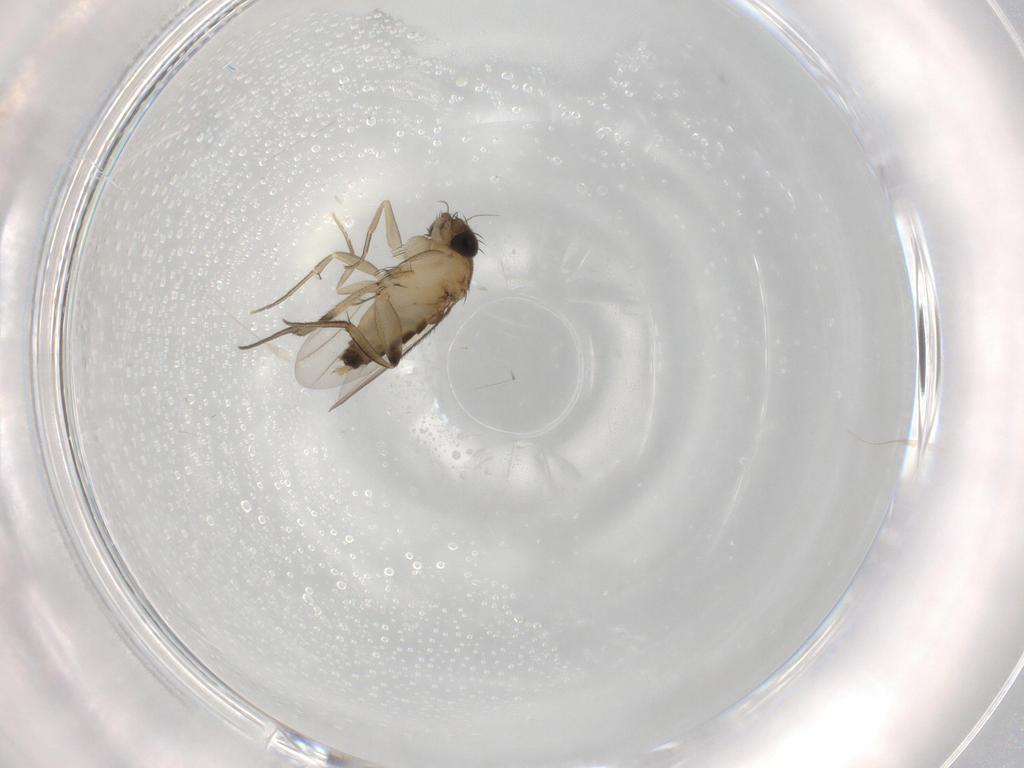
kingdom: Animalia
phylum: Arthropoda
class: Insecta
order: Diptera
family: Phoridae
